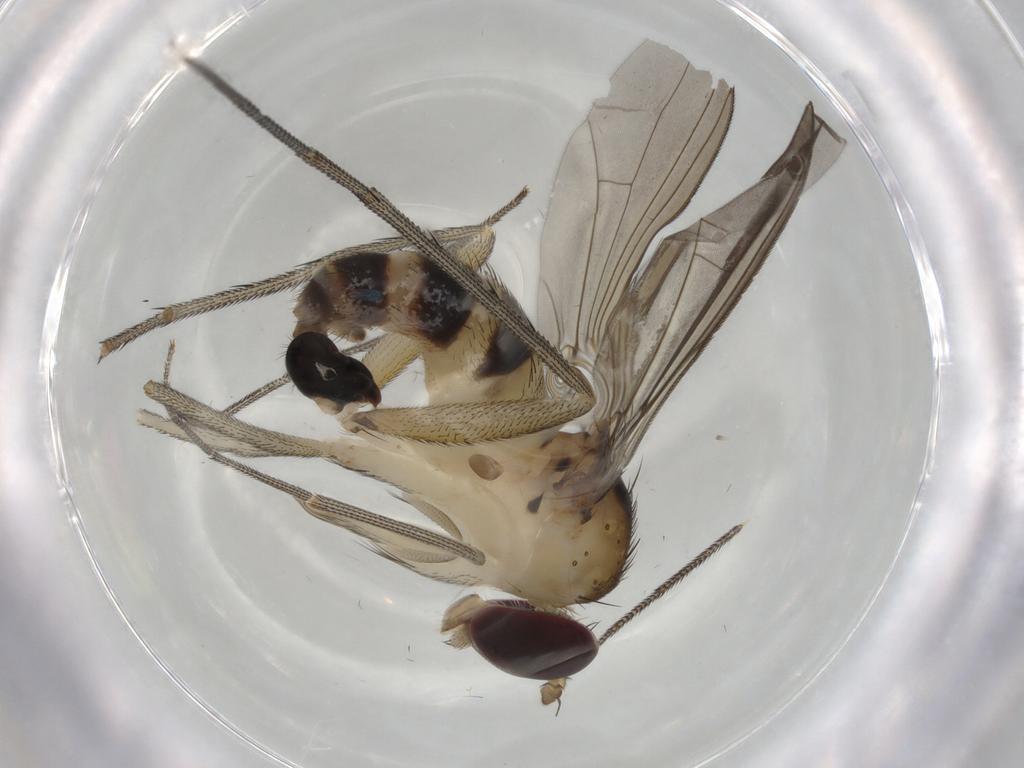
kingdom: Animalia
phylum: Arthropoda
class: Insecta
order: Diptera
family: Dolichopodidae
